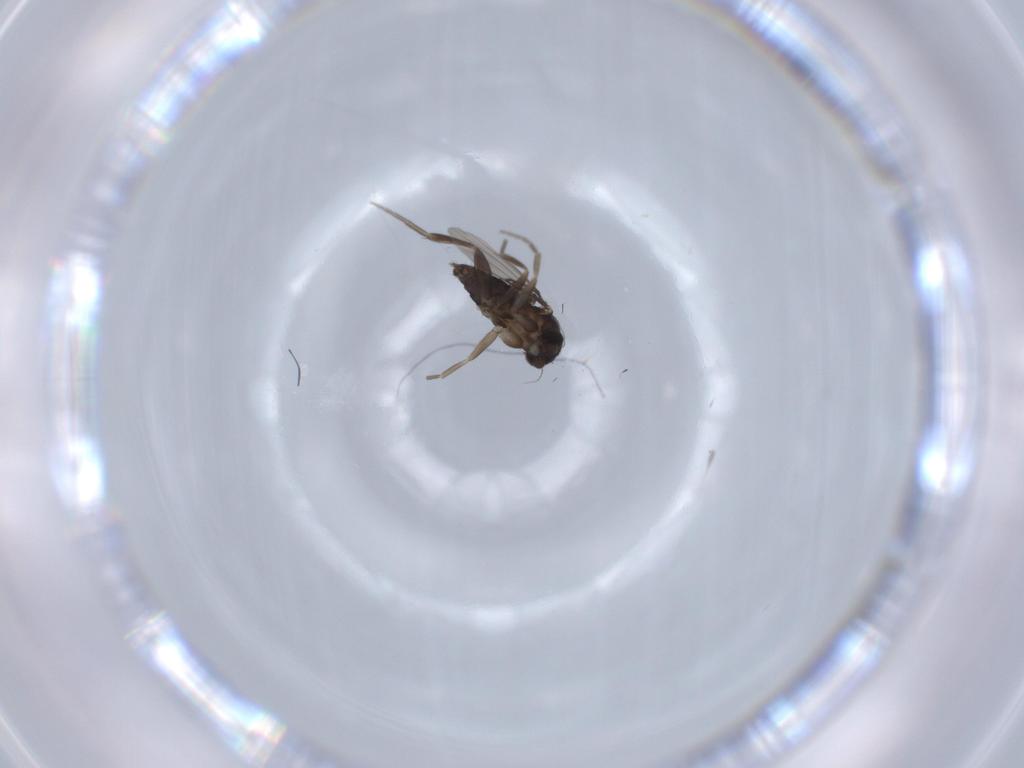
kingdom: Animalia
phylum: Arthropoda
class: Insecta
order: Diptera
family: Phoridae
